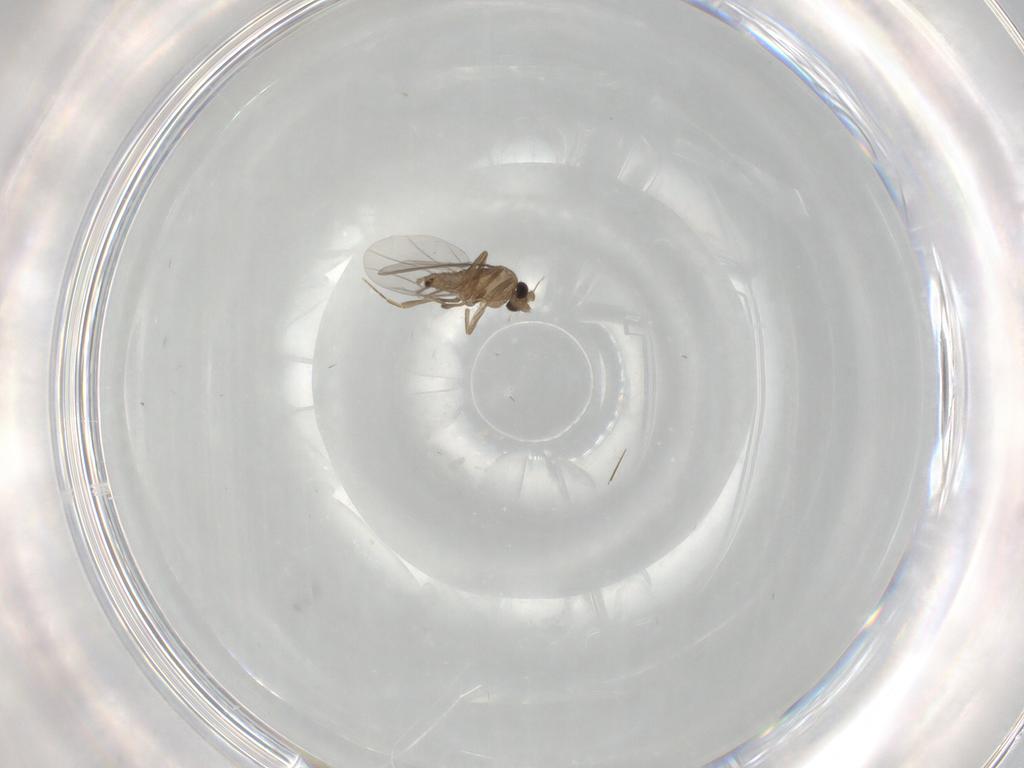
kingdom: Animalia
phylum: Arthropoda
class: Insecta
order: Diptera
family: Cecidomyiidae
